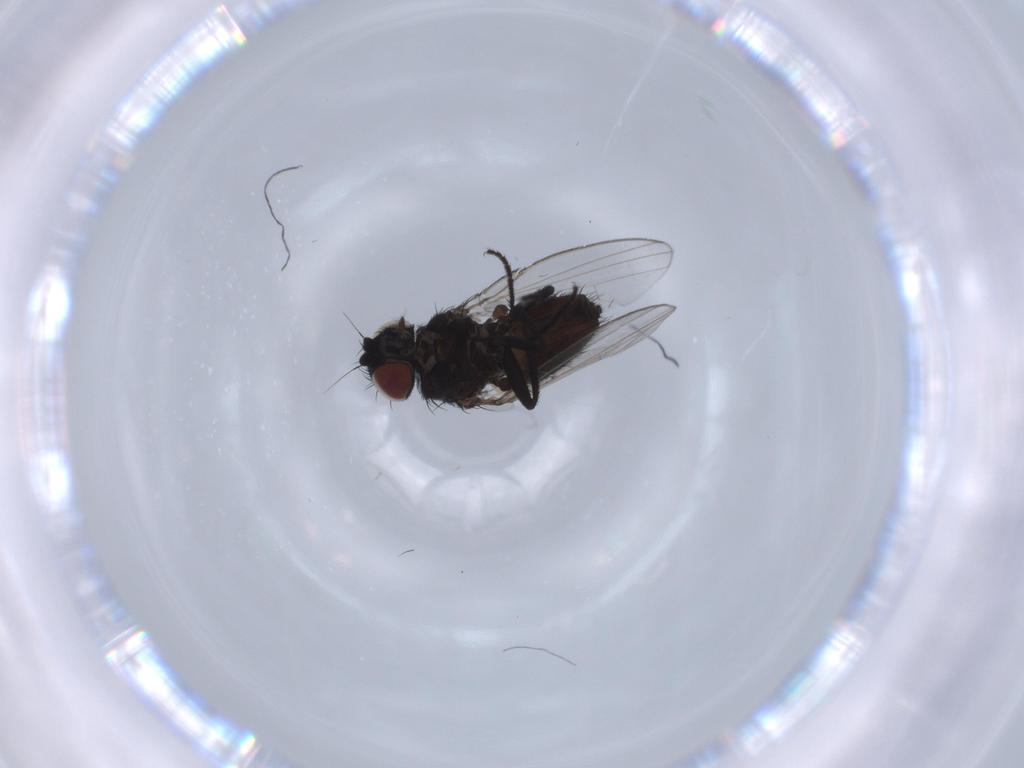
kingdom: Animalia
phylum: Arthropoda
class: Insecta
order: Diptera
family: Milichiidae
